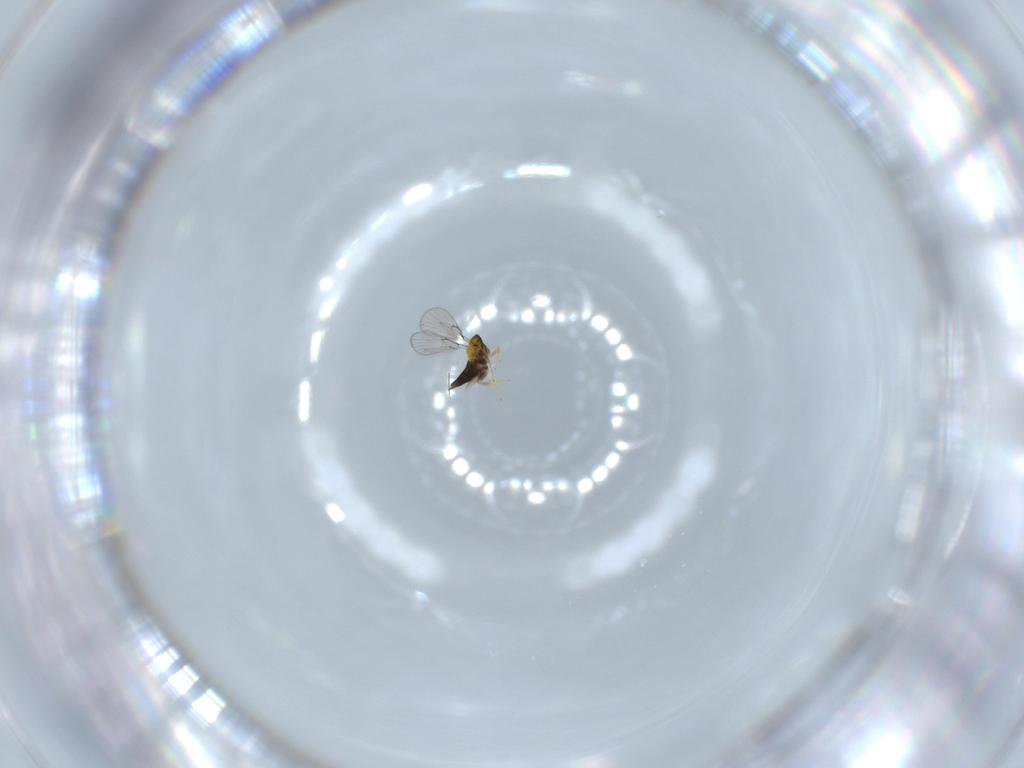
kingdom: Animalia
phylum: Arthropoda
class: Insecta
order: Hymenoptera
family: Trichogrammatidae
